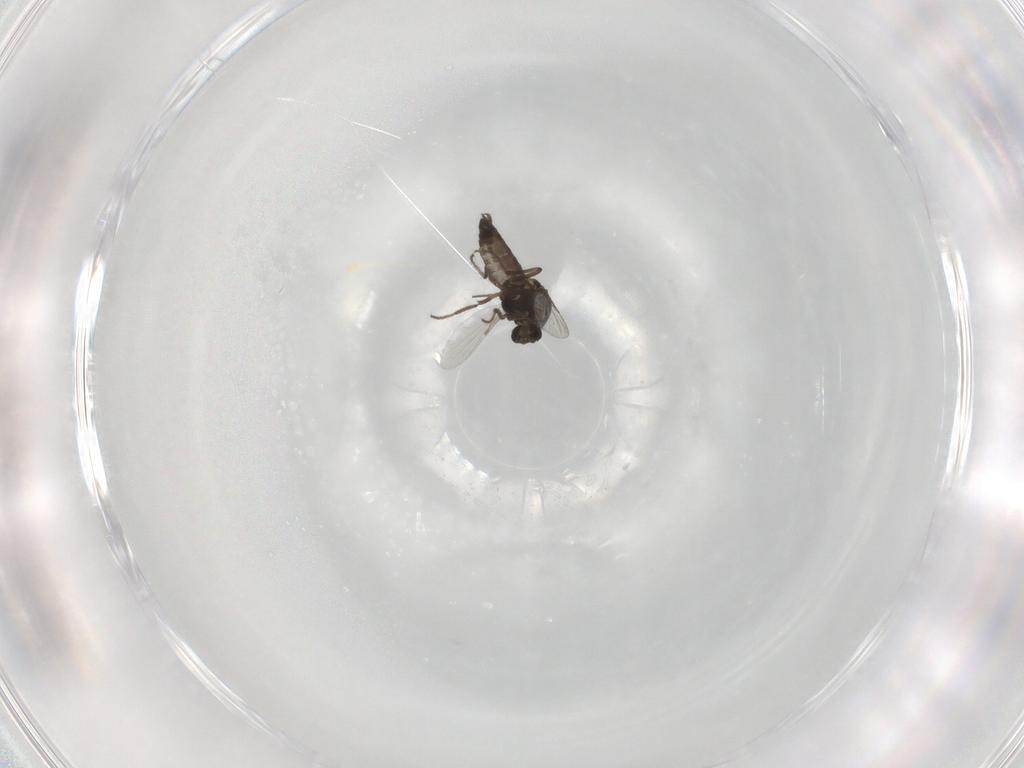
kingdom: Animalia
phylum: Arthropoda
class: Insecta
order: Diptera
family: Ceratopogonidae
